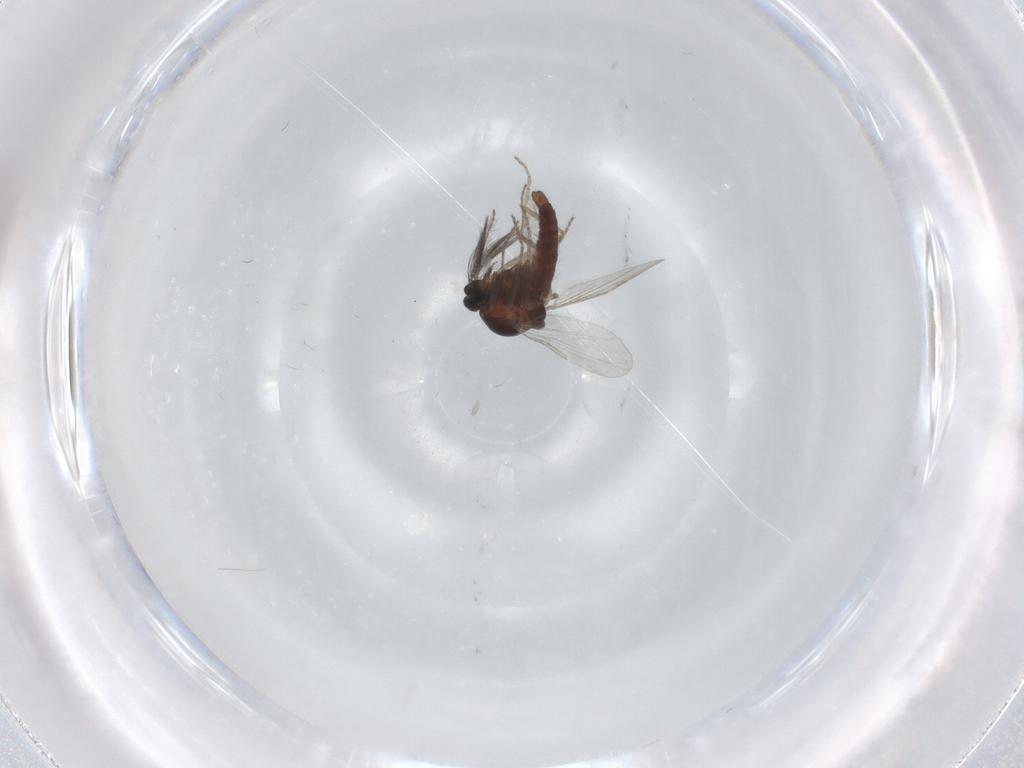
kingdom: Animalia
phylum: Arthropoda
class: Insecta
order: Diptera
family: Ceratopogonidae
